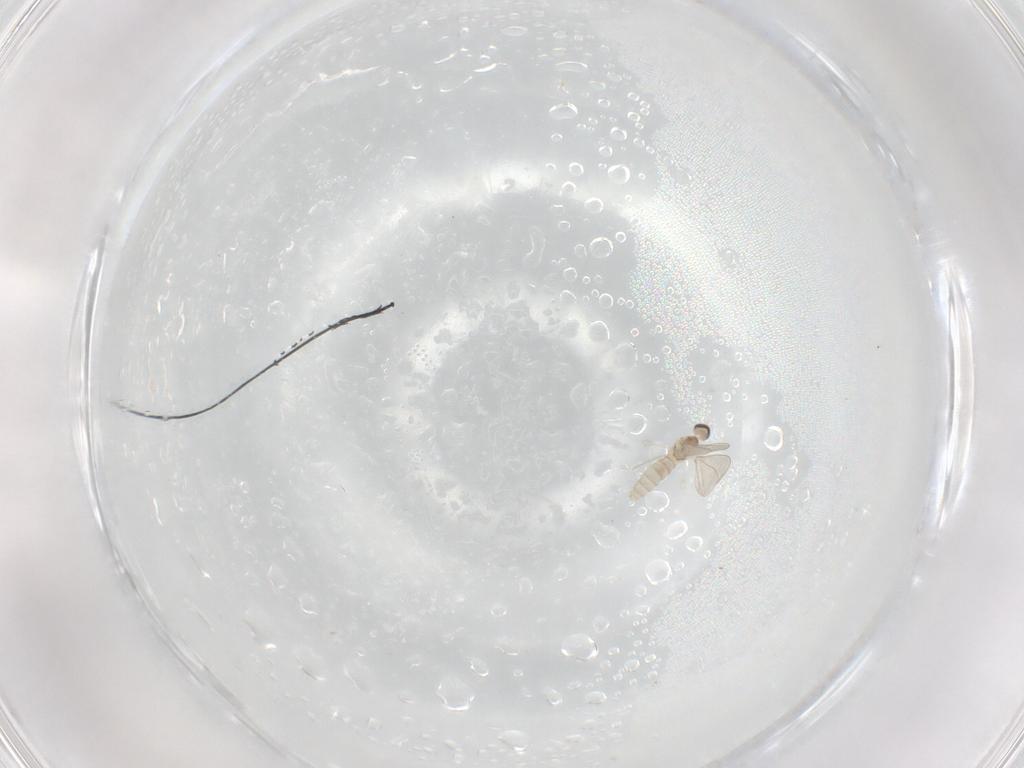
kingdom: Animalia
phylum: Arthropoda
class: Insecta
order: Diptera
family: Cecidomyiidae
